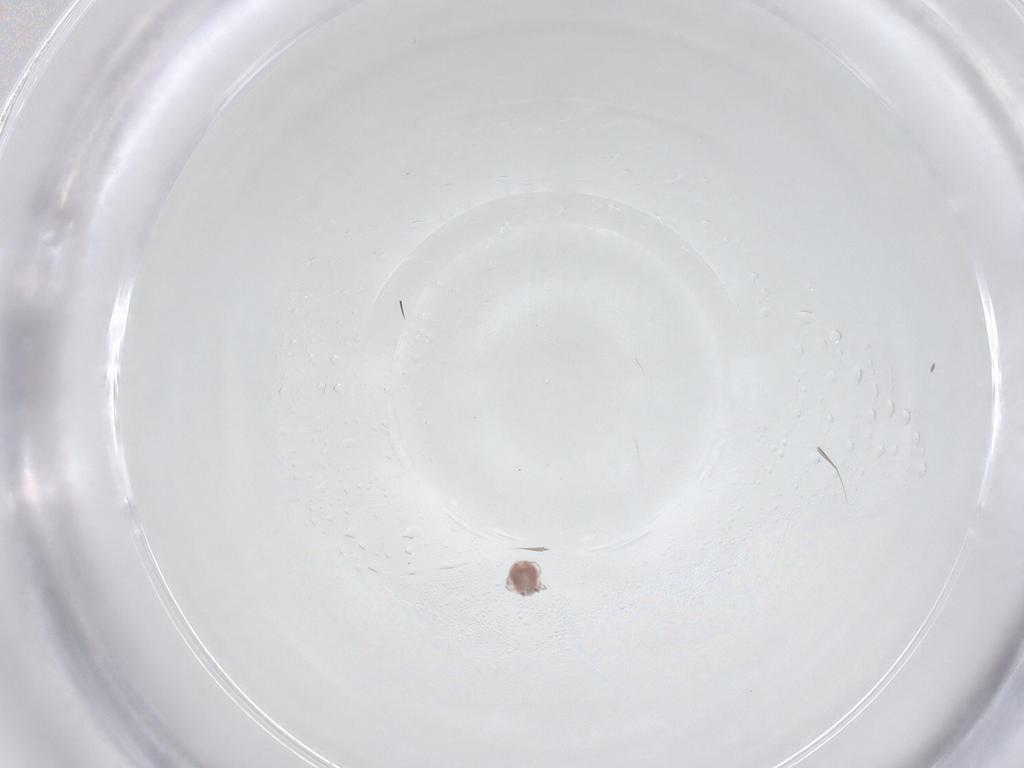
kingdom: Animalia
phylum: Arthropoda
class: Arachnida
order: Trombidiformes
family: Pionidae
